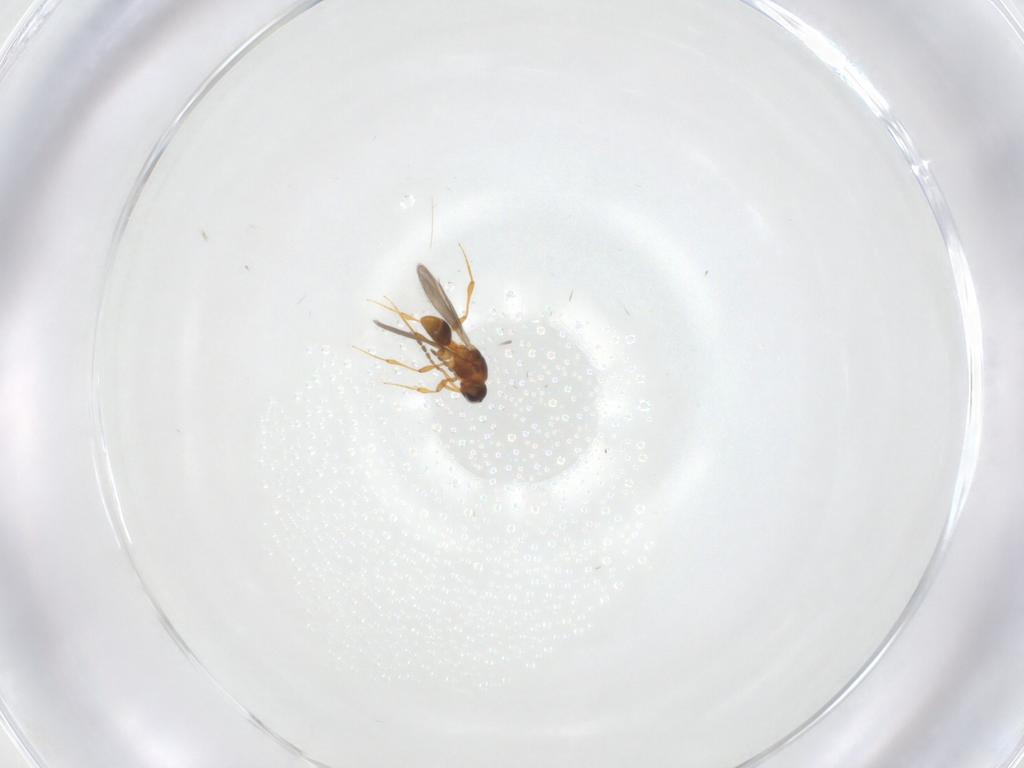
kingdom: Animalia
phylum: Arthropoda
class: Insecta
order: Hymenoptera
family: Platygastridae
